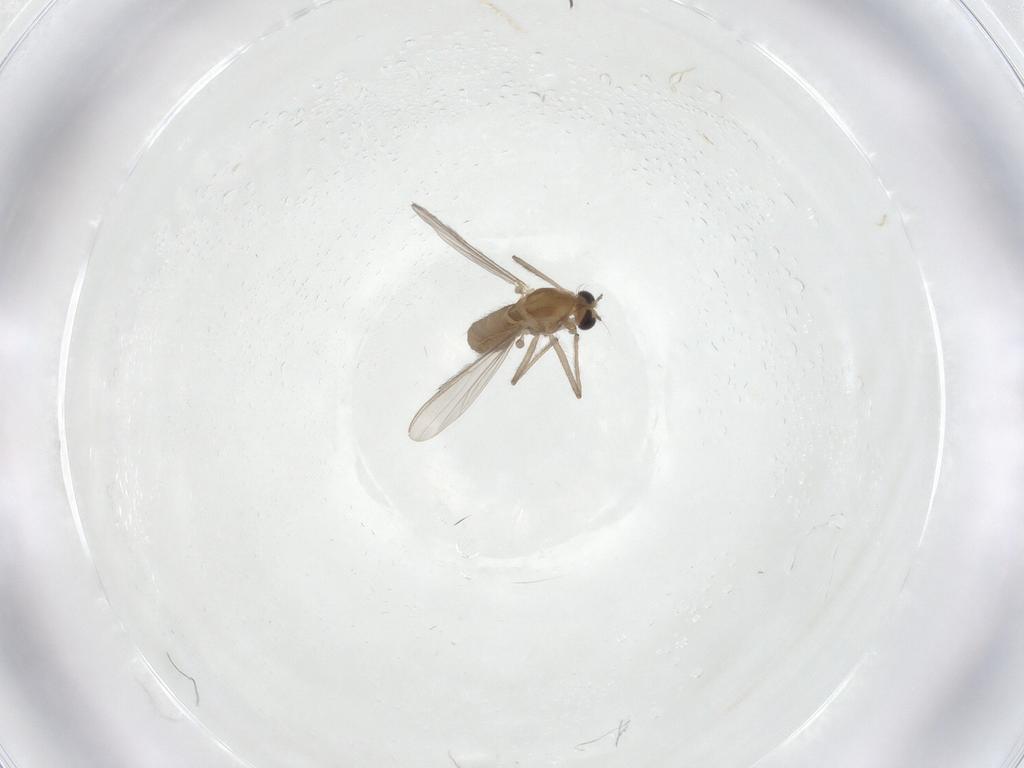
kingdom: Animalia
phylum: Arthropoda
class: Insecta
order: Diptera
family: Chironomidae
